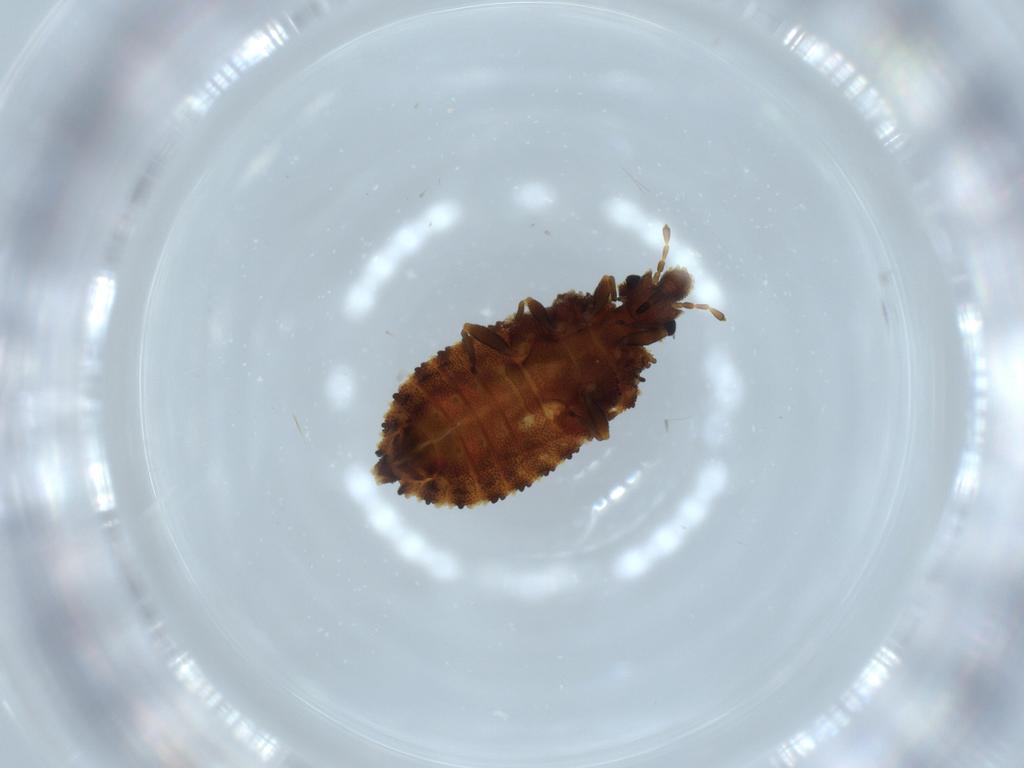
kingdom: Animalia
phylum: Arthropoda
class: Insecta
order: Hemiptera
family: Aradidae
